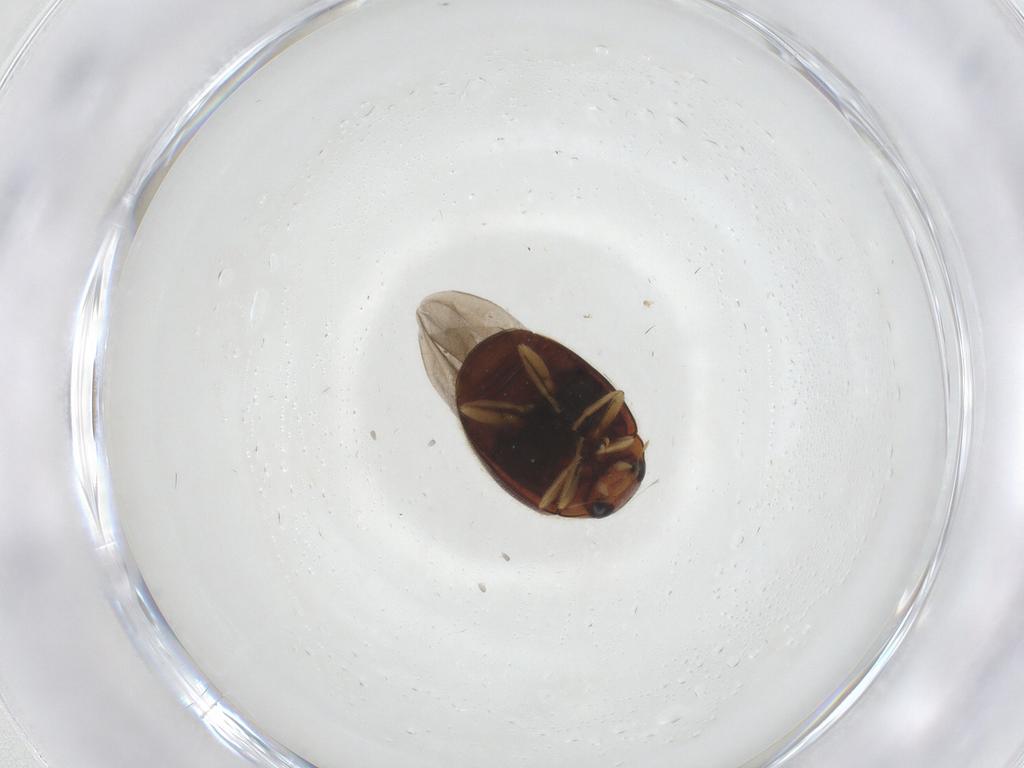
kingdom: Animalia
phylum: Arthropoda
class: Insecta
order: Coleoptera
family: Coccinellidae
